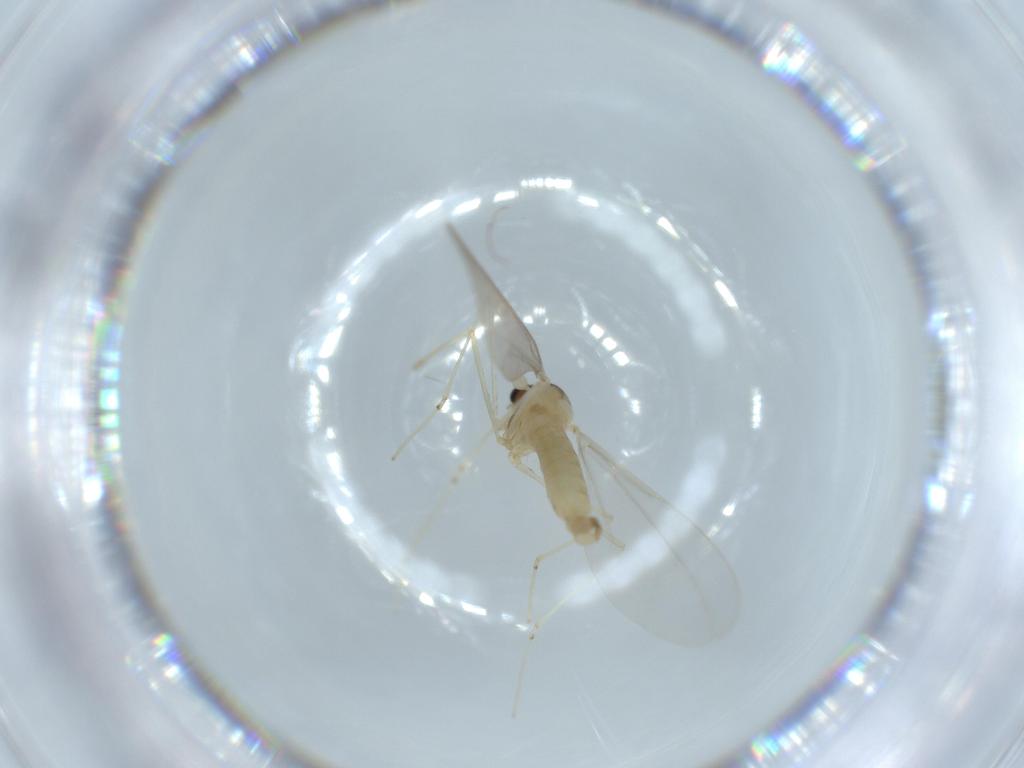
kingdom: Animalia
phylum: Arthropoda
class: Insecta
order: Diptera
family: Cecidomyiidae
